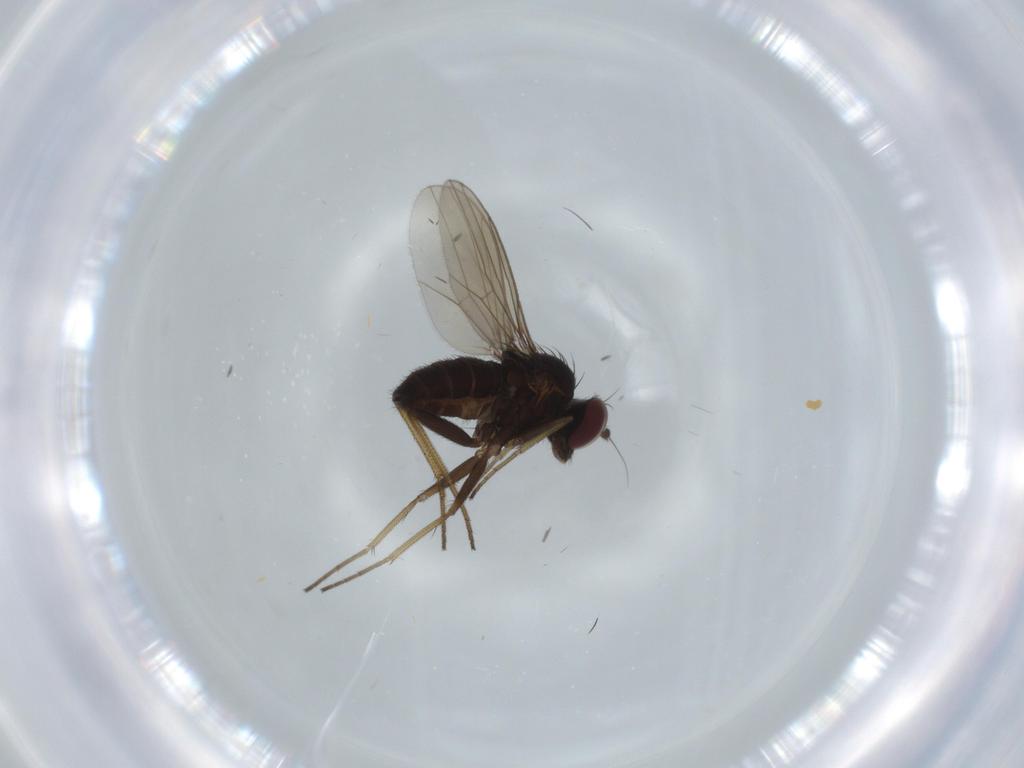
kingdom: Animalia
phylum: Arthropoda
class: Insecta
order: Diptera
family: Dolichopodidae
